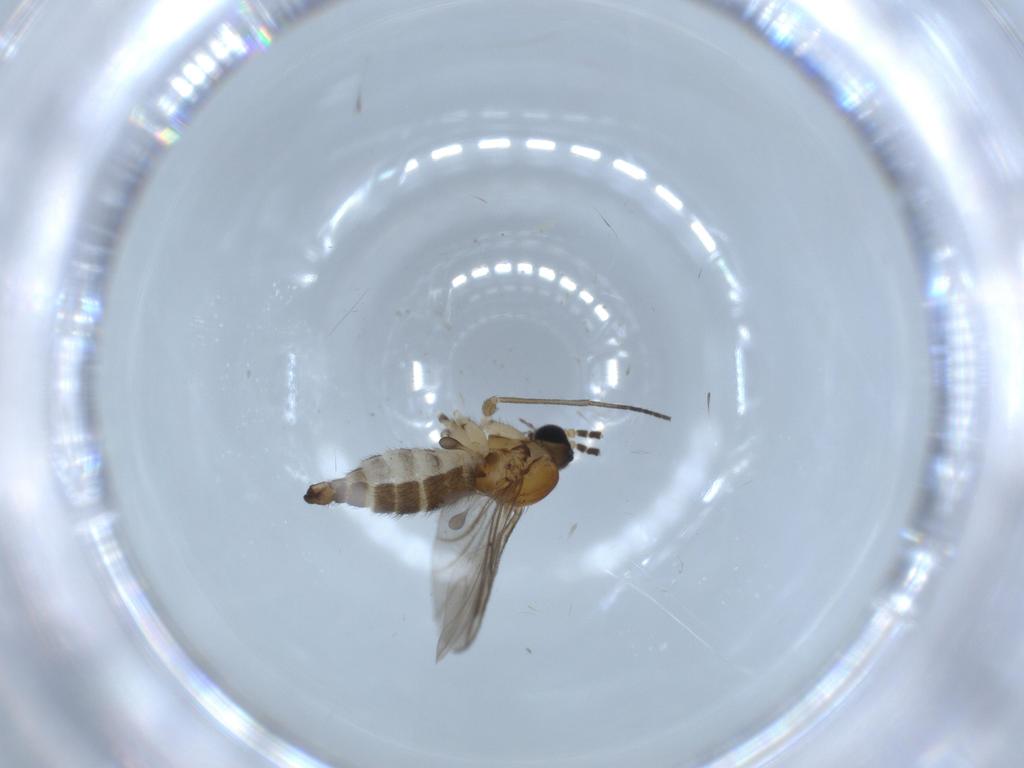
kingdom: Animalia
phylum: Arthropoda
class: Insecta
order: Diptera
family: Sciaridae
